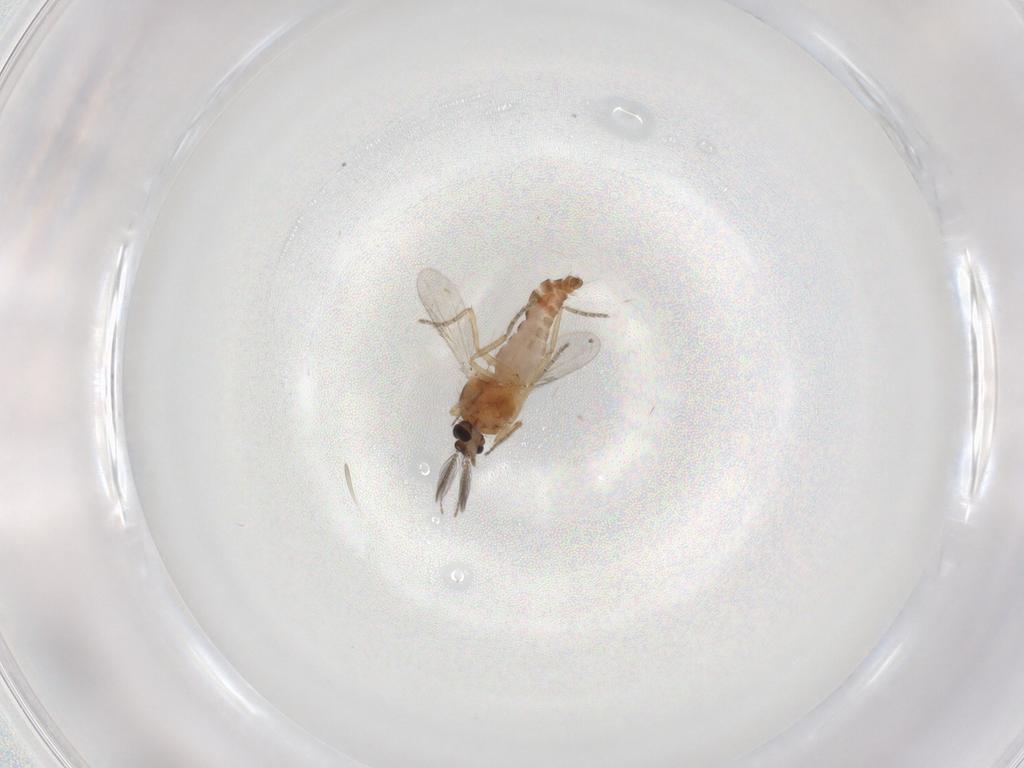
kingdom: Animalia
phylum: Arthropoda
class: Insecta
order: Diptera
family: Ceratopogonidae
